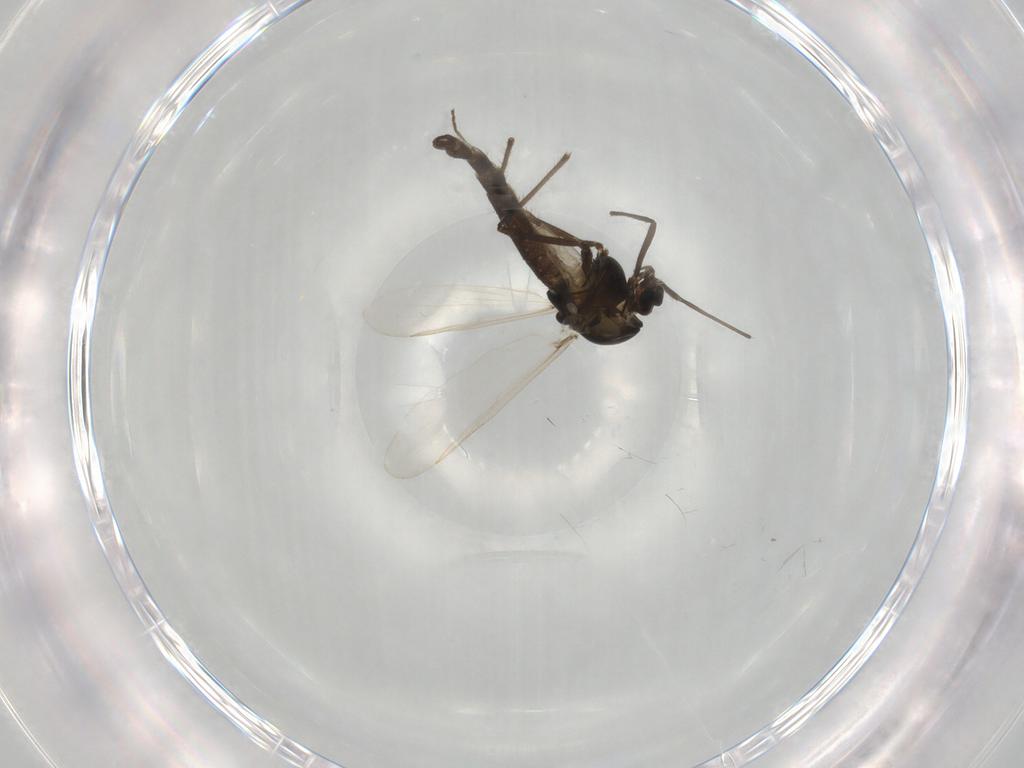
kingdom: Animalia
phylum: Arthropoda
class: Insecta
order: Diptera
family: Chironomidae
